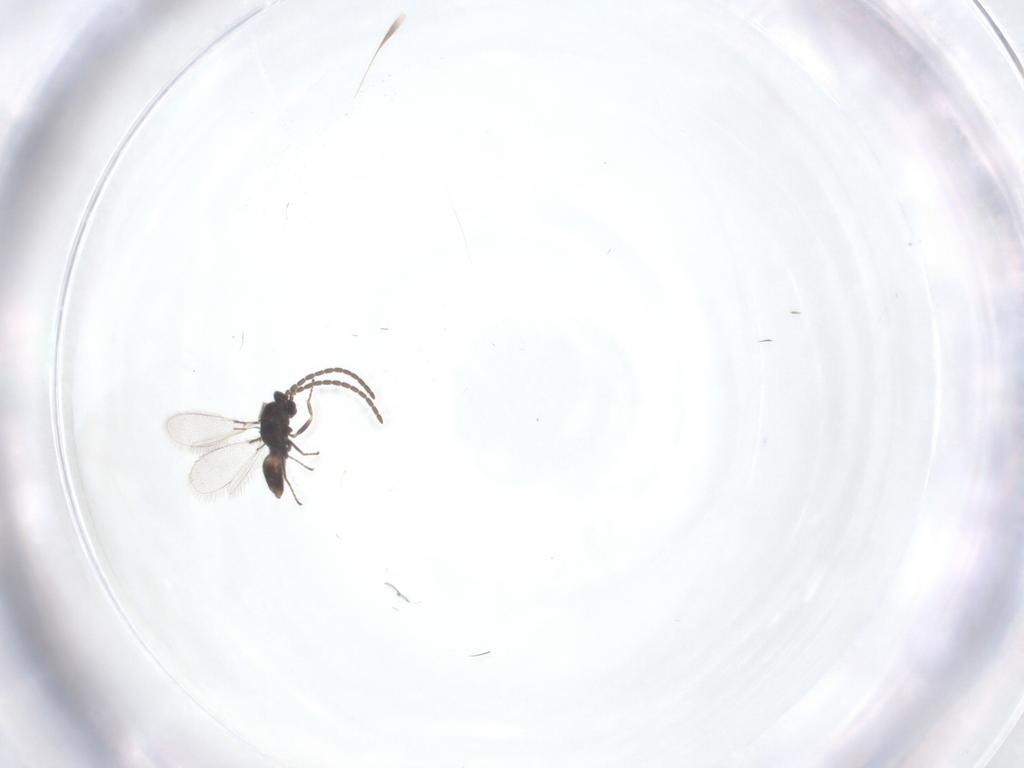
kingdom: Animalia
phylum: Arthropoda
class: Insecta
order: Hymenoptera
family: Mymaridae
